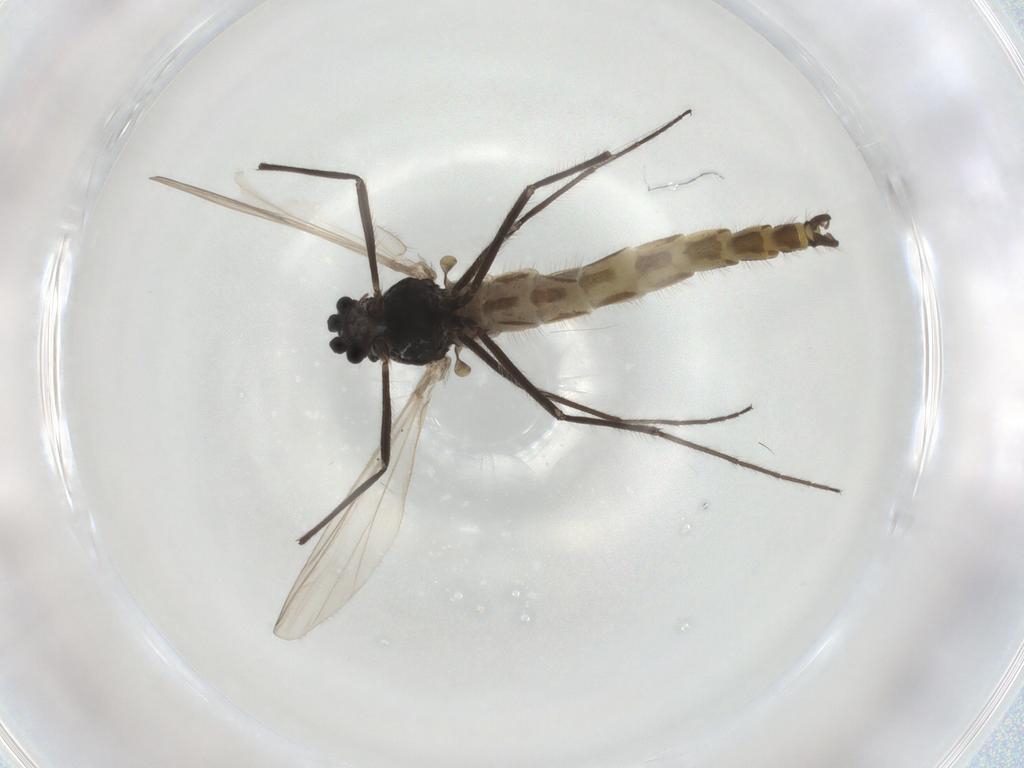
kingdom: Animalia
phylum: Arthropoda
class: Insecta
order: Diptera
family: Chironomidae
